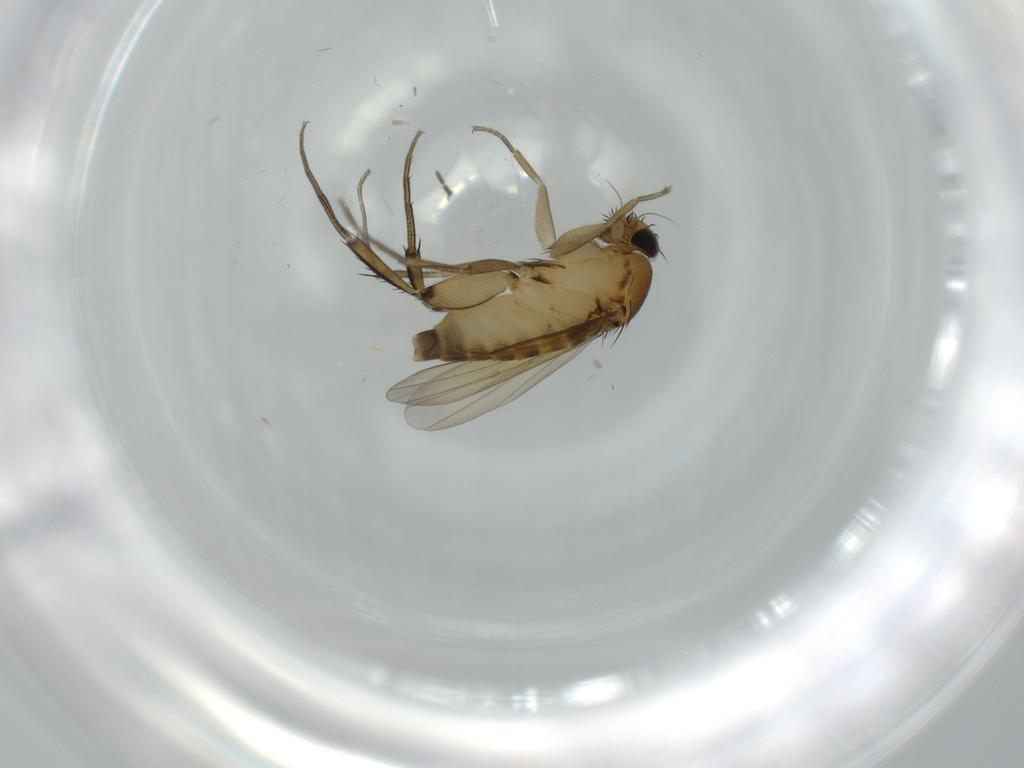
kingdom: Animalia
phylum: Arthropoda
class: Insecta
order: Diptera
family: Phoridae
